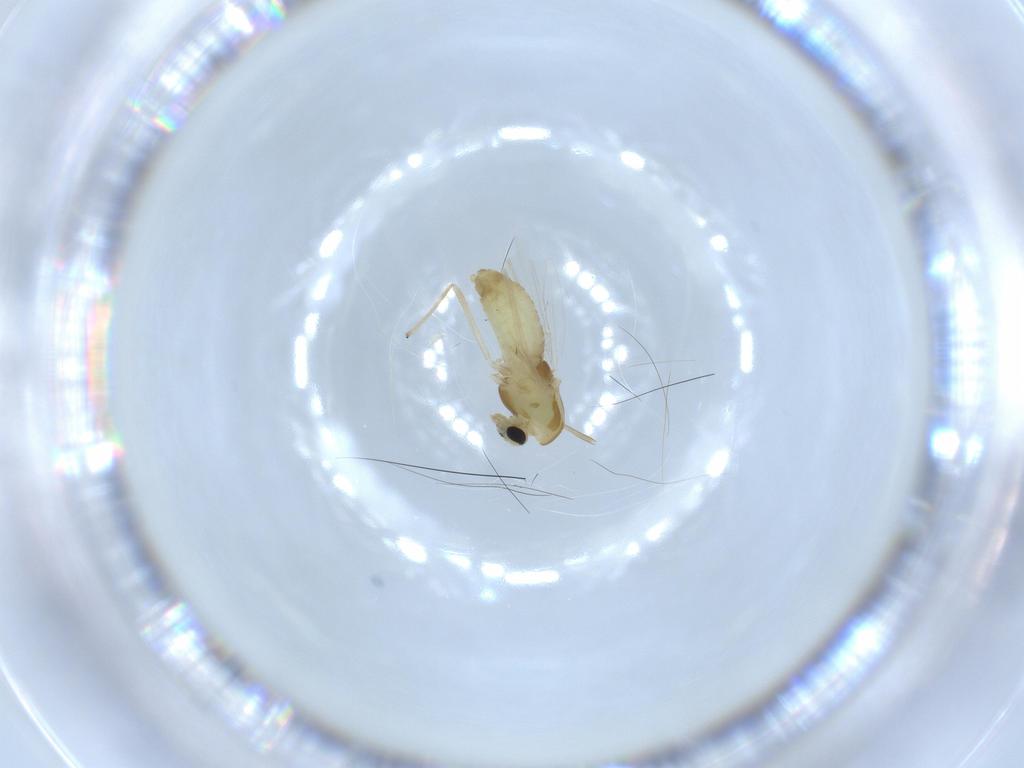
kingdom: Animalia
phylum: Arthropoda
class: Insecta
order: Diptera
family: Chironomidae
